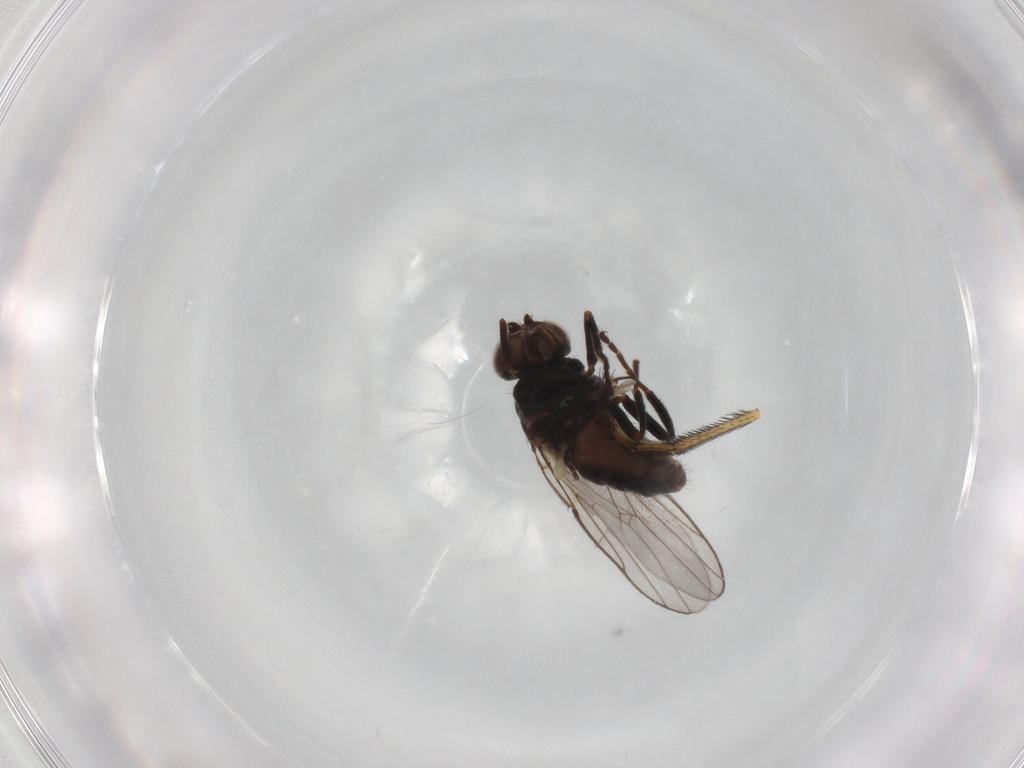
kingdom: Animalia
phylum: Arthropoda
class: Insecta
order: Diptera
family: Chloropidae
